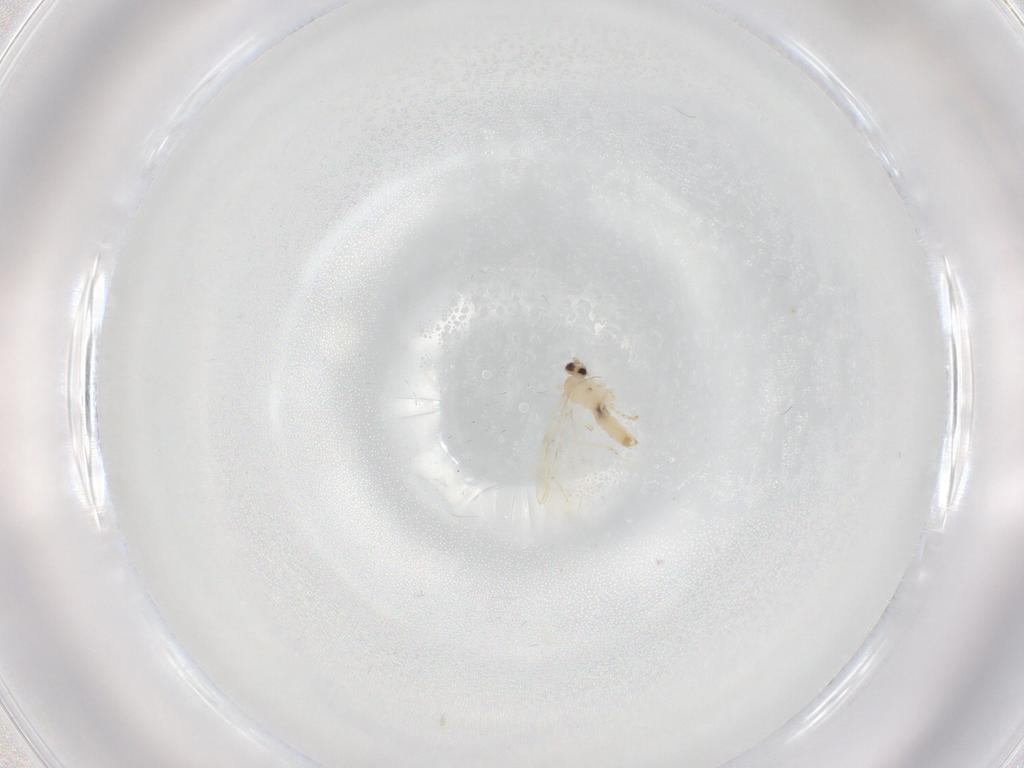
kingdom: Animalia
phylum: Arthropoda
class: Insecta
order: Diptera
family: Cecidomyiidae
